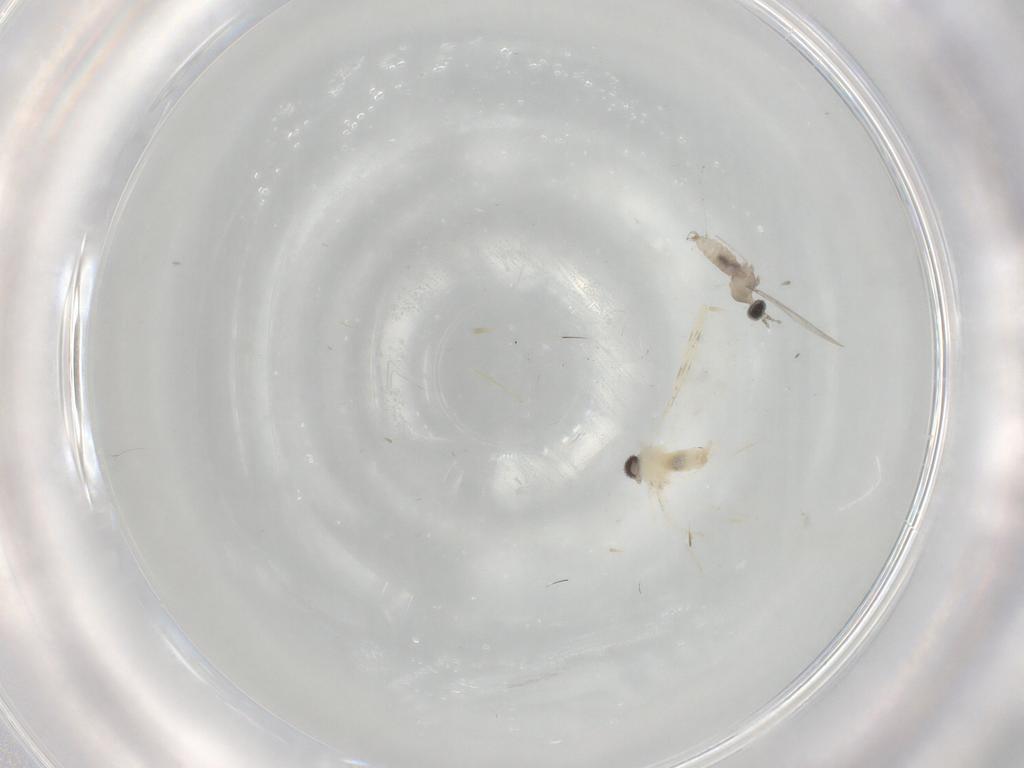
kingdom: Animalia
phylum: Arthropoda
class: Insecta
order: Diptera
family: Cecidomyiidae
